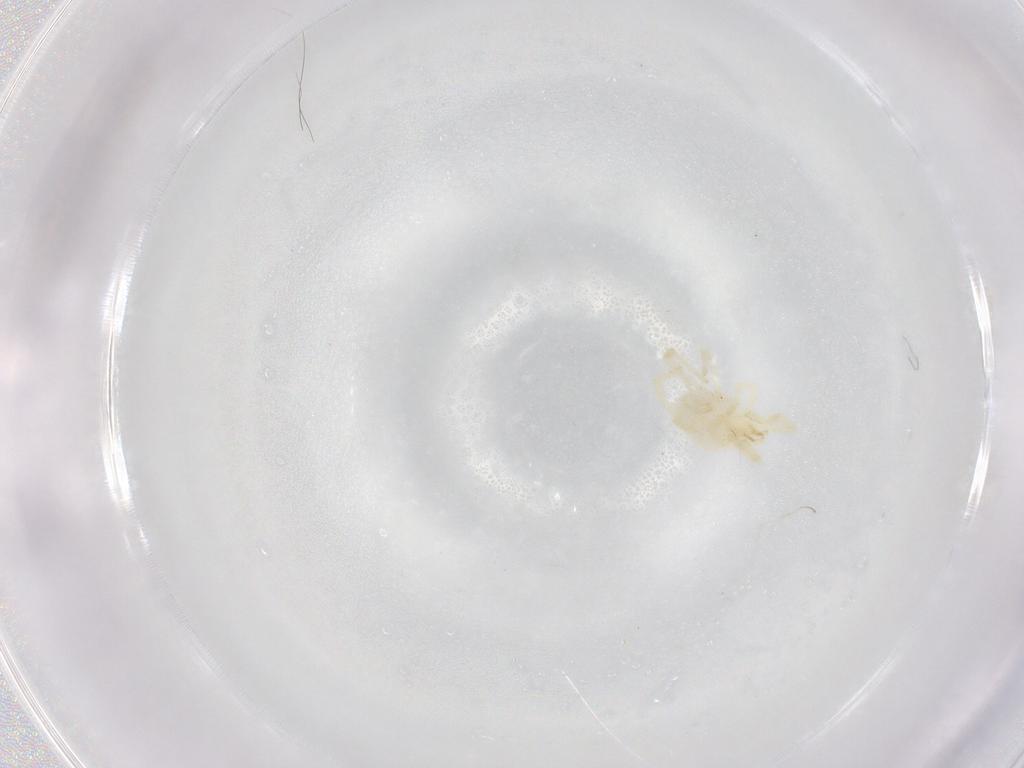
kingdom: Animalia
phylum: Arthropoda
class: Arachnida
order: Trombidiformes
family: Erythraeidae
